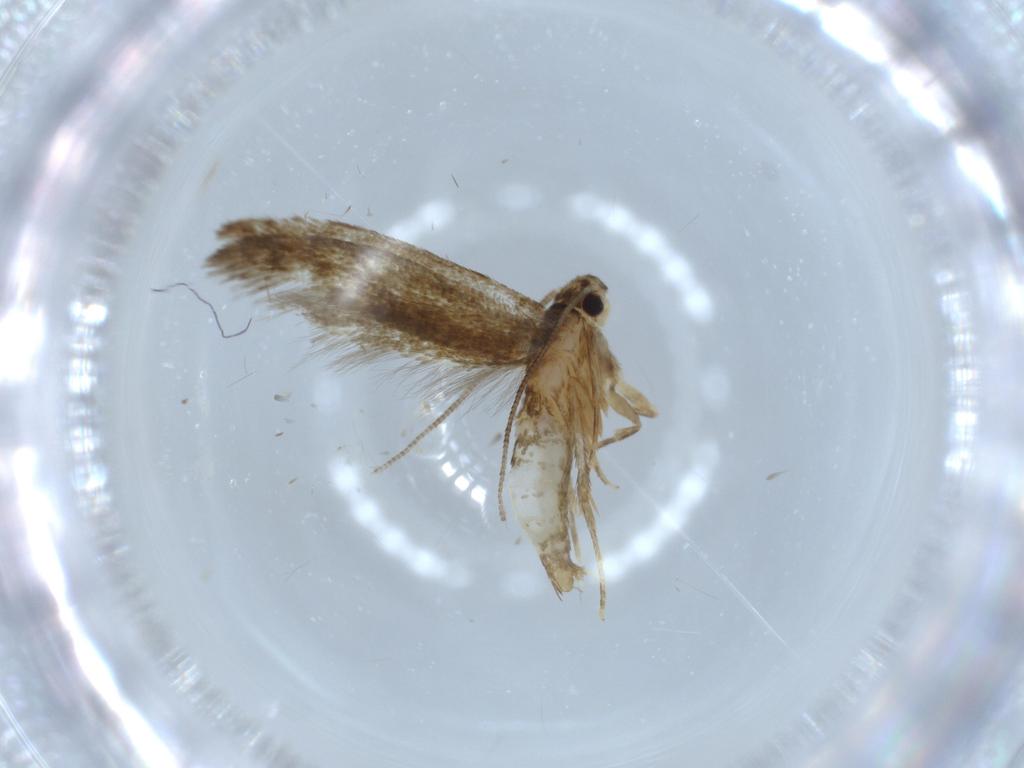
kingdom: Animalia
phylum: Arthropoda
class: Insecta
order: Lepidoptera
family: Tineidae
